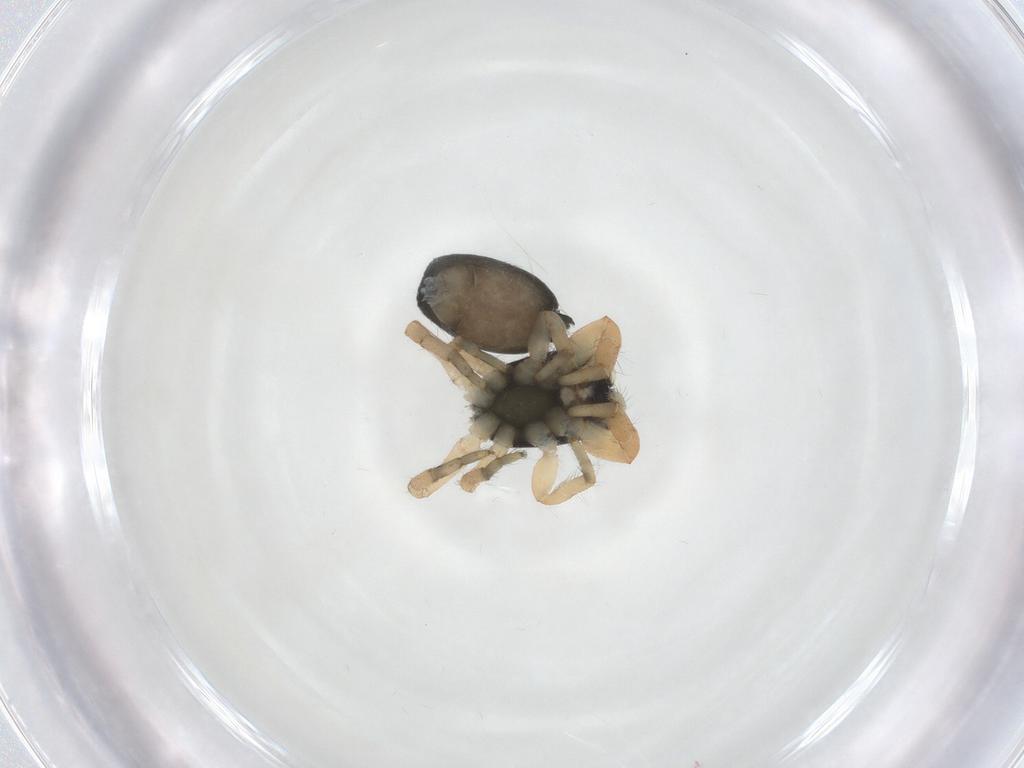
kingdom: Animalia
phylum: Arthropoda
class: Arachnida
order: Araneae
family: Salticidae
